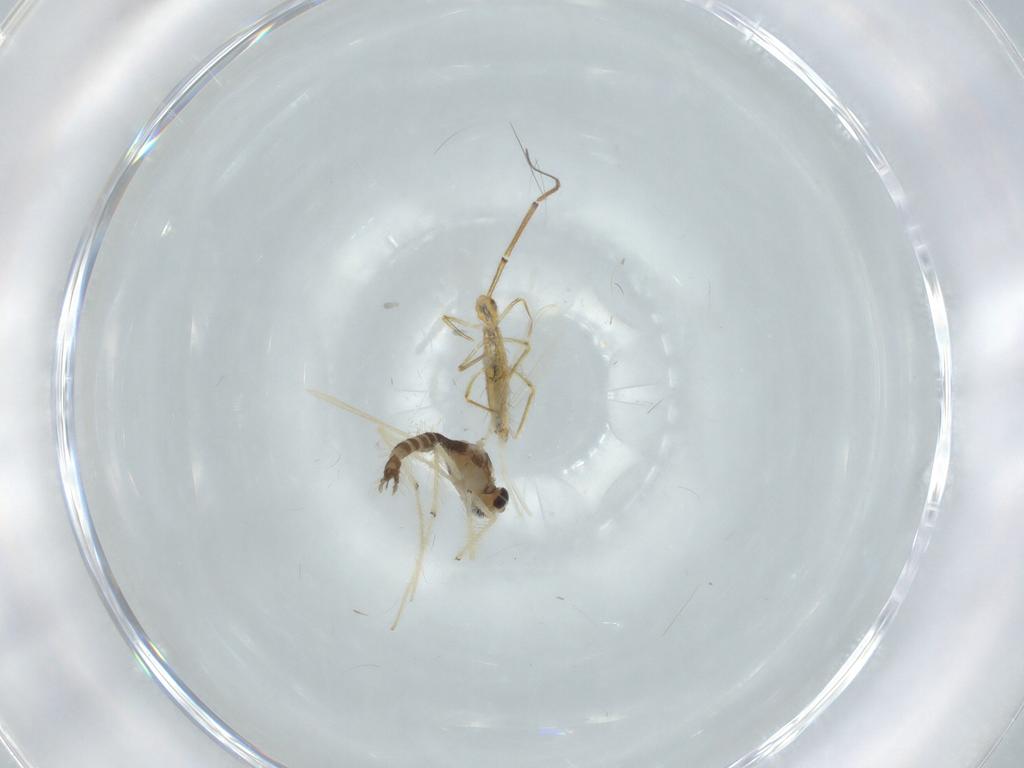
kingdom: Animalia
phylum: Arthropoda
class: Insecta
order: Diptera
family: Chironomidae
